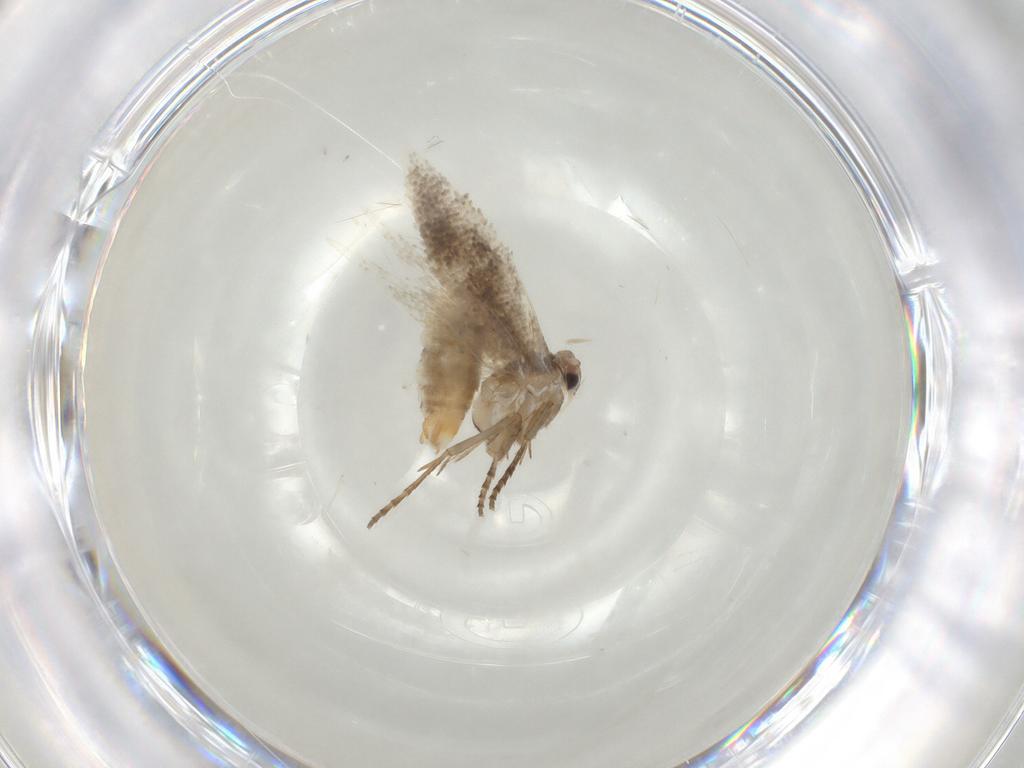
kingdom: Animalia
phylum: Arthropoda
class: Insecta
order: Lepidoptera
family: Bucculatricidae
